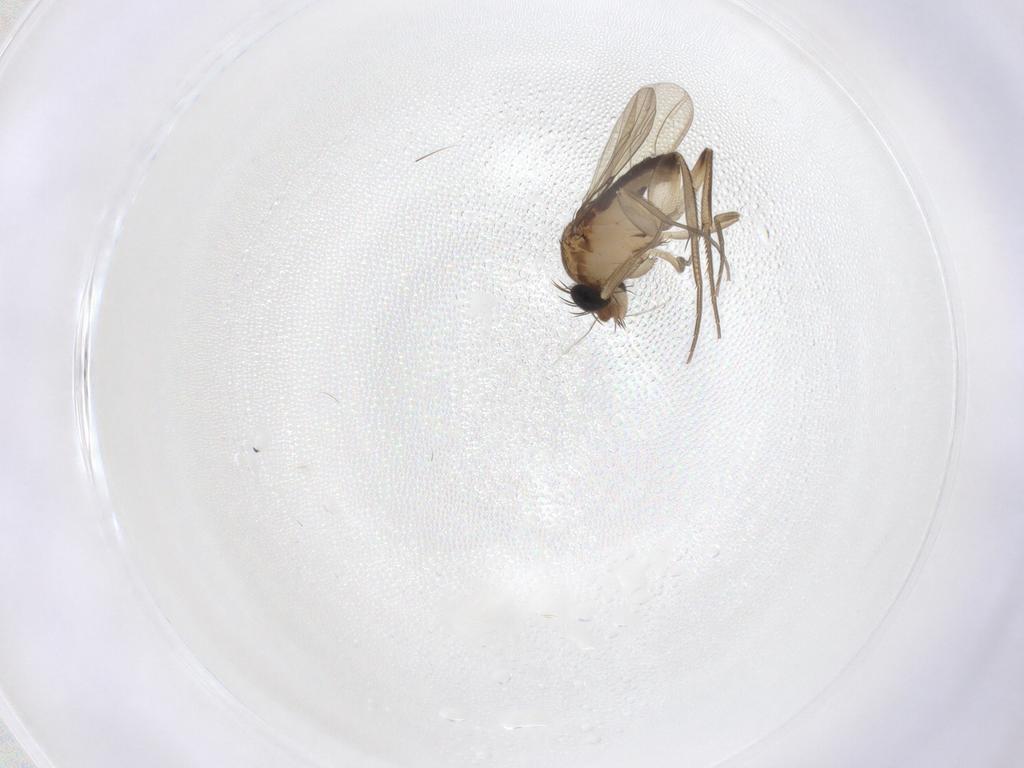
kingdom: Animalia
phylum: Arthropoda
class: Insecta
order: Diptera
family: Phoridae
